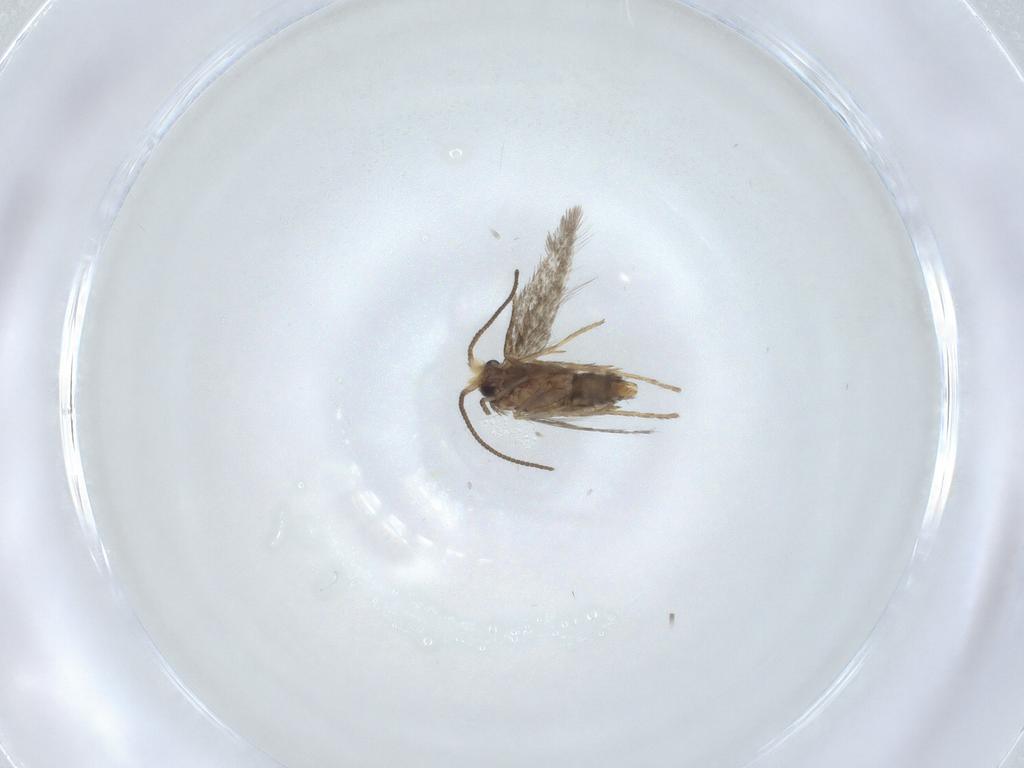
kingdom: Animalia
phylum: Arthropoda
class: Insecta
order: Lepidoptera
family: Nepticulidae
